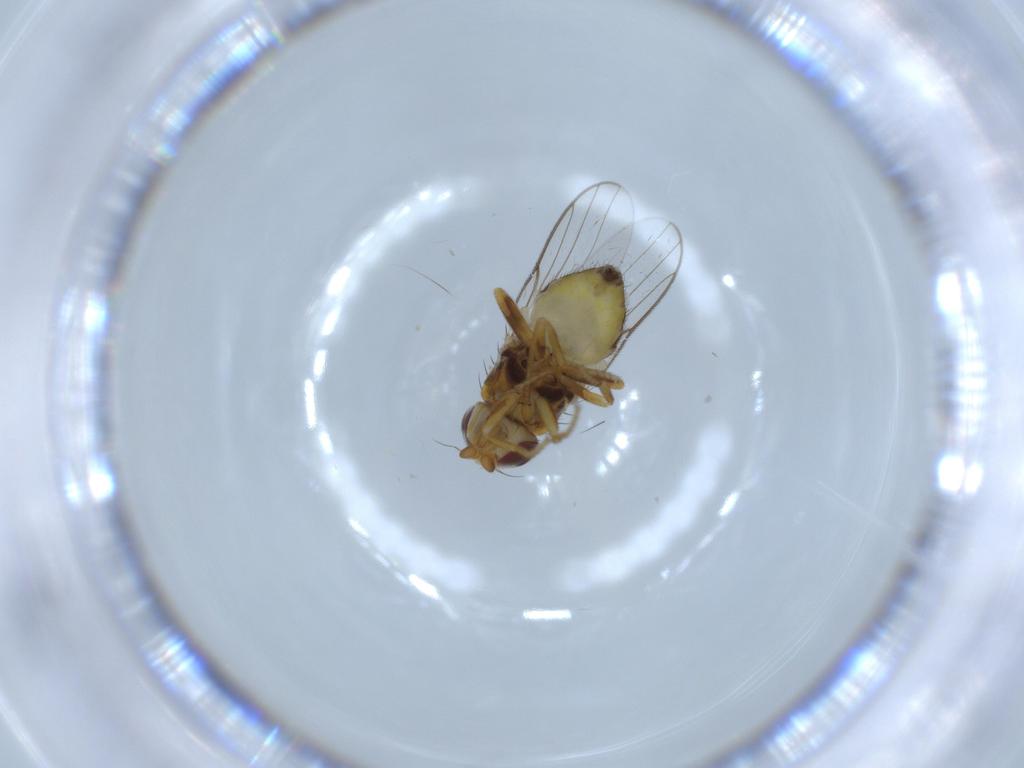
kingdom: Animalia
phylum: Arthropoda
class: Insecta
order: Diptera
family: Chloropidae
